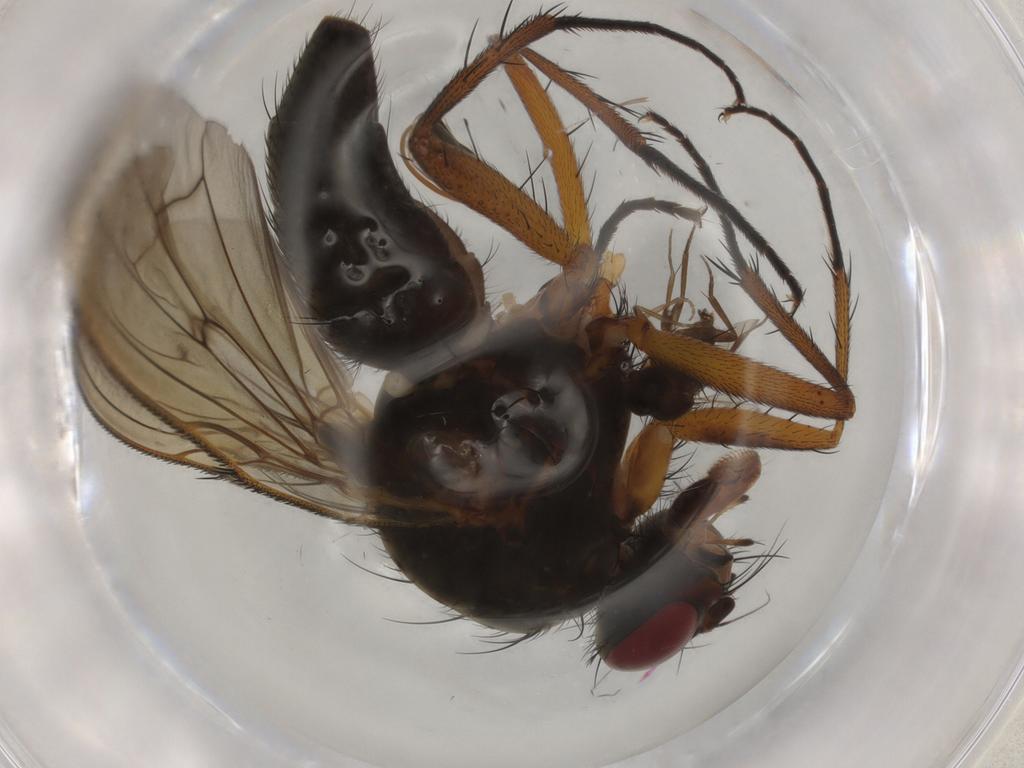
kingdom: Animalia
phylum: Arthropoda
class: Insecta
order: Diptera
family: Anthomyiidae
